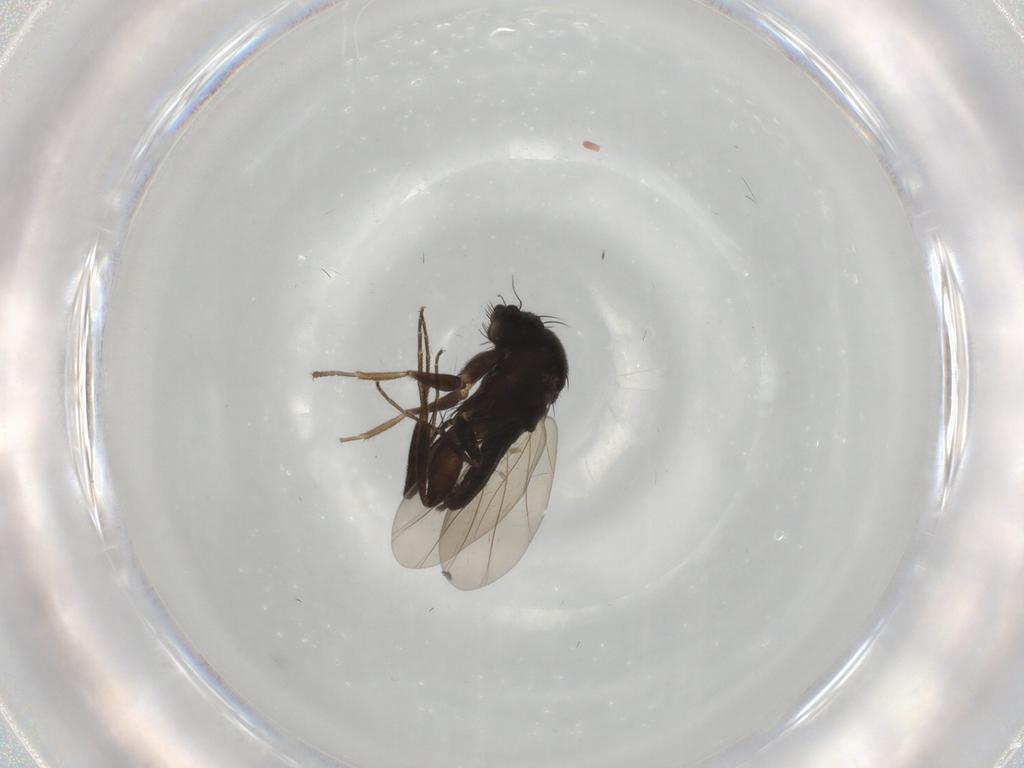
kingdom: Animalia
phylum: Arthropoda
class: Insecta
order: Diptera
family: Phoridae
